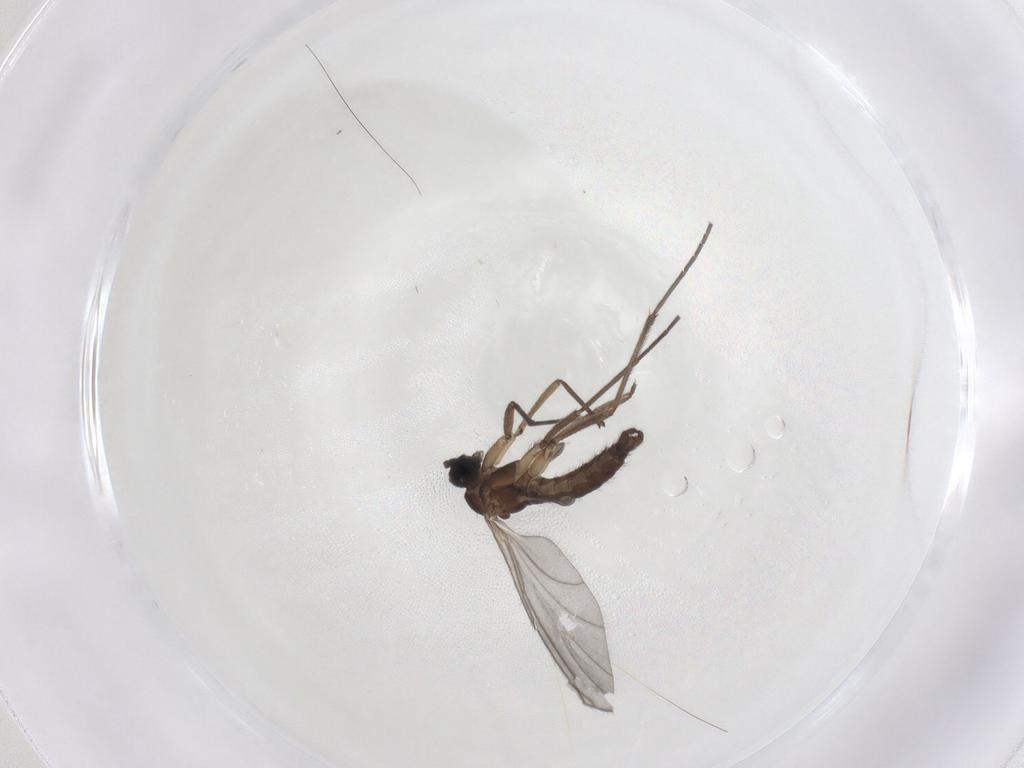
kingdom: Animalia
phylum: Arthropoda
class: Insecta
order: Diptera
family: Sciaridae
